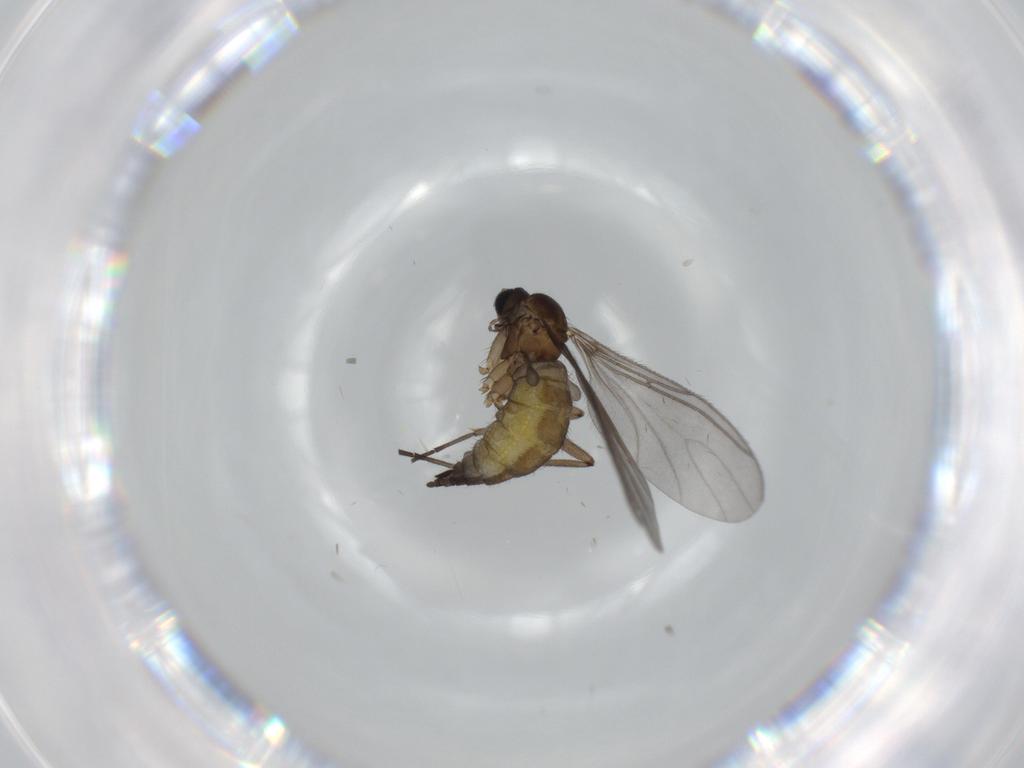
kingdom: Animalia
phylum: Arthropoda
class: Insecta
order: Diptera
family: Sciaridae
